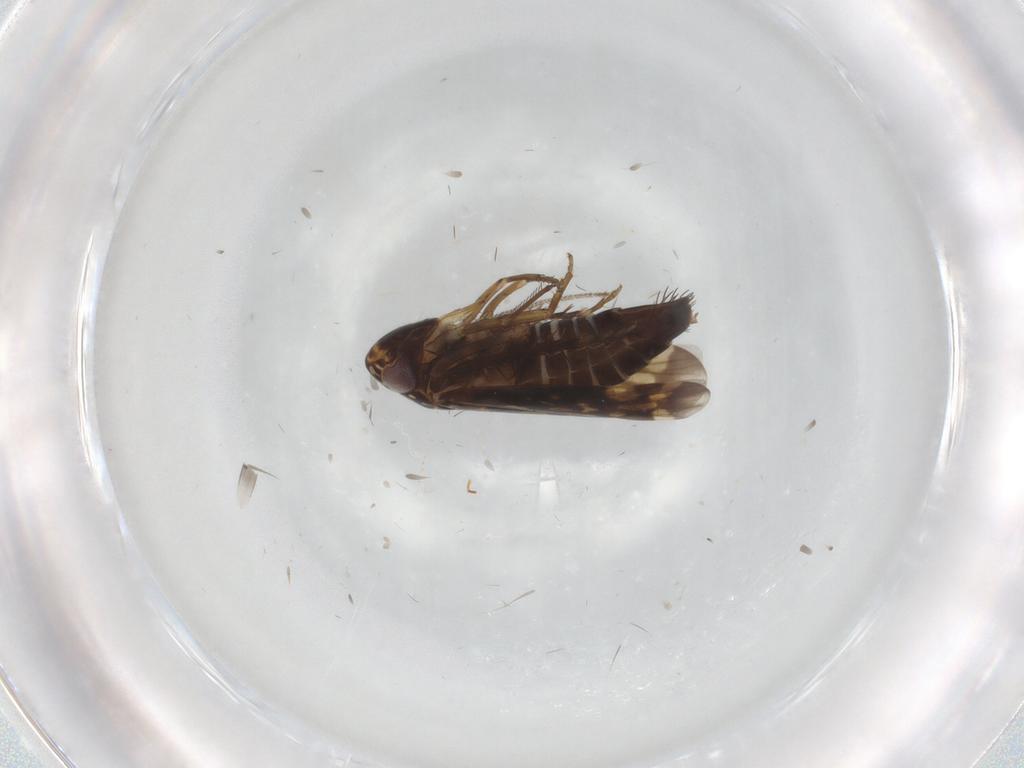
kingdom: Animalia
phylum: Arthropoda
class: Insecta
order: Hemiptera
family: Cicadellidae
